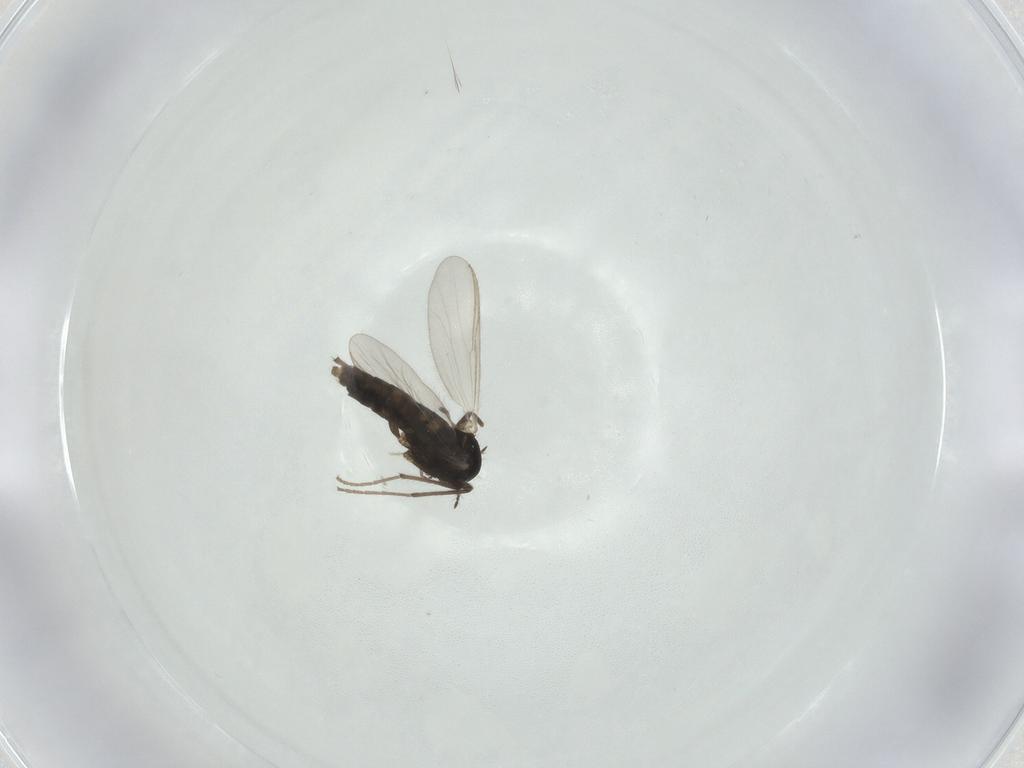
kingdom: Animalia
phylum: Arthropoda
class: Insecta
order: Diptera
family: Chironomidae
